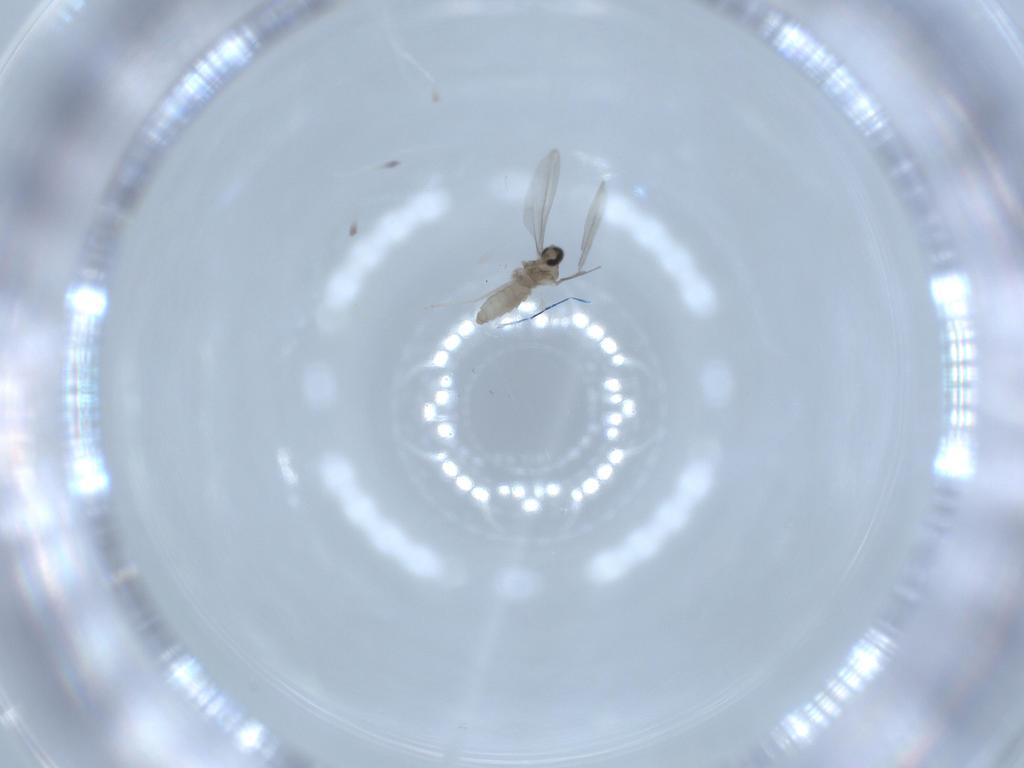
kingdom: Animalia
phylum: Arthropoda
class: Insecta
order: Diptera
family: Cecidomyiidae
